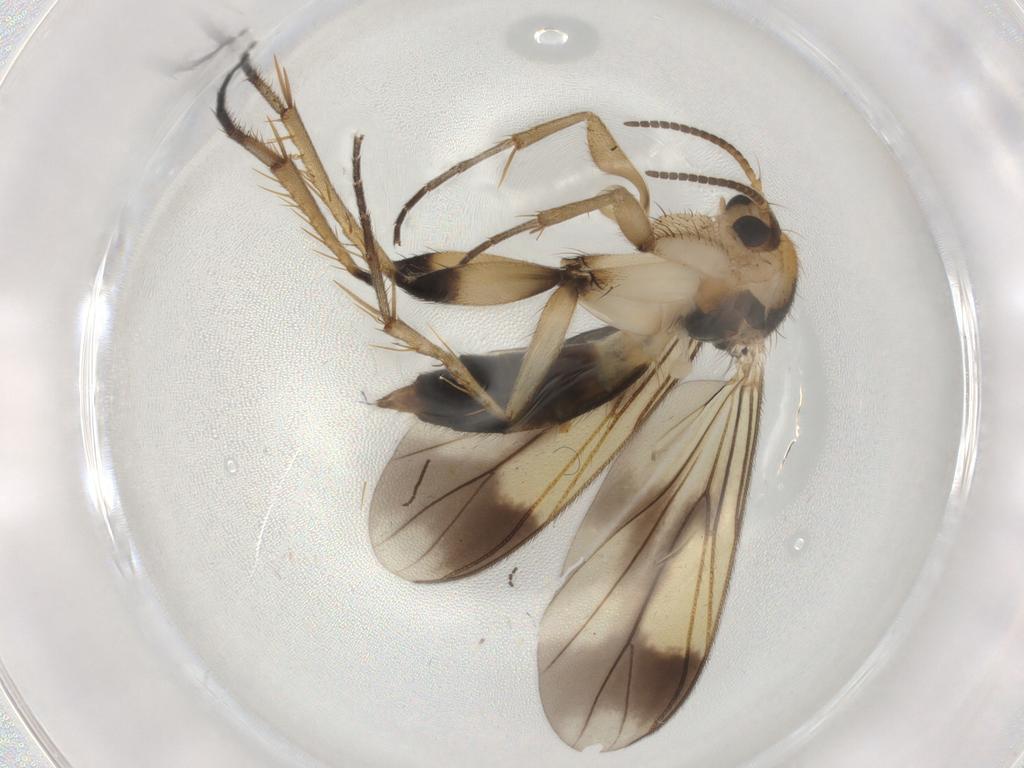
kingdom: Animalia
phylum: Arthropoda
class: Insecta
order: Diptera
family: Mycetophilidae
